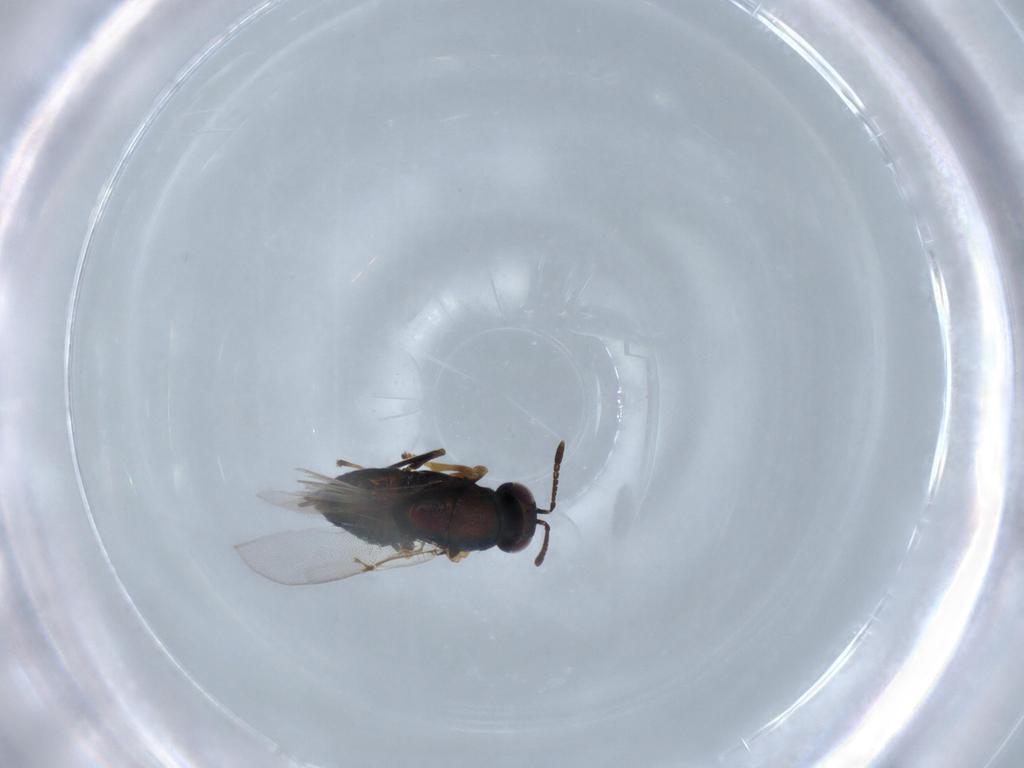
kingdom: Animalia
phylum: Arthropoda
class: Insecta
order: Hymenoptera
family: Encyrtidae
